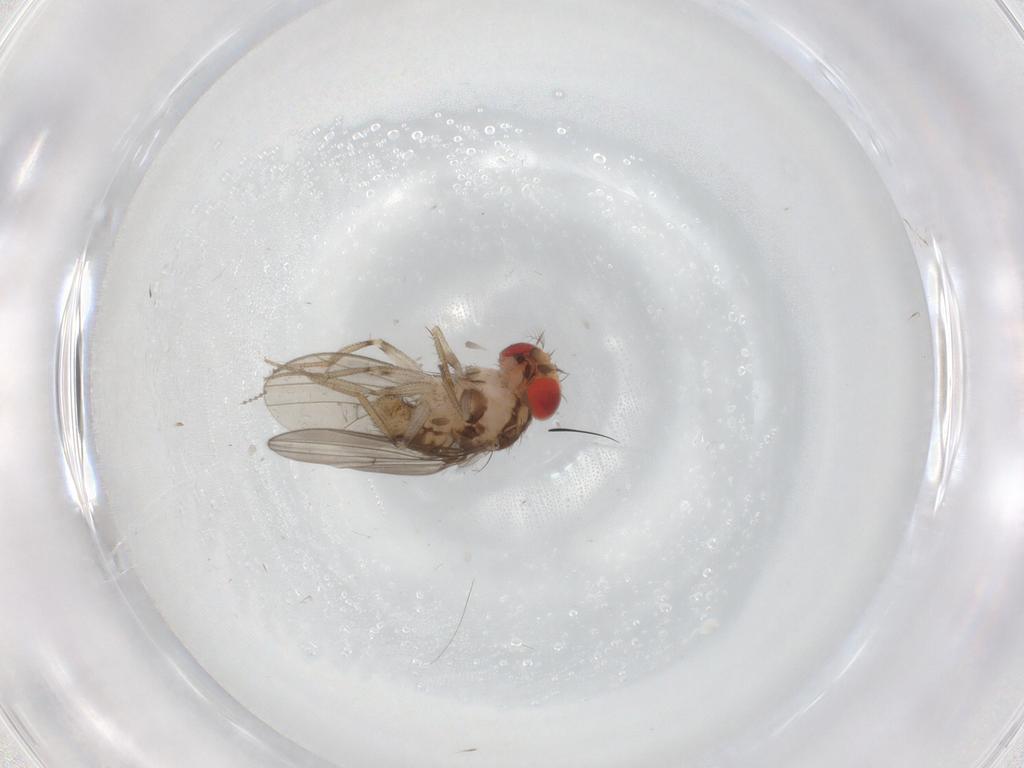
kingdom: Animalia
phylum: Arthropoda
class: Insecta
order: Diptera
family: Drosophilidae
